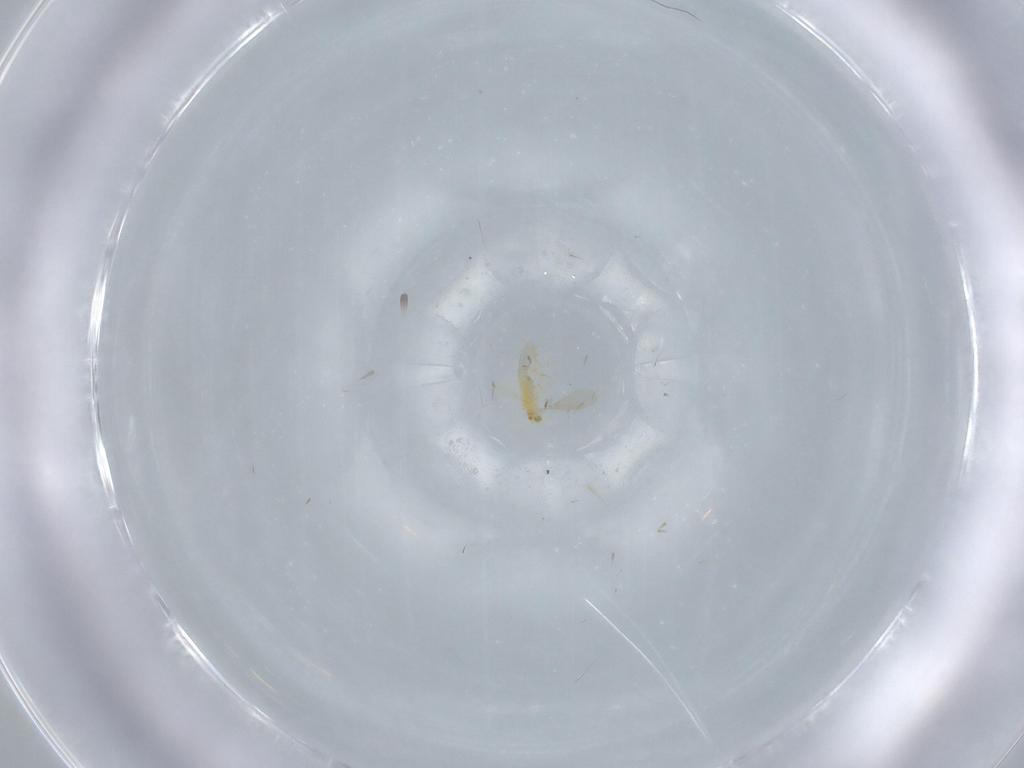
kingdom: Animalia
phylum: Arthropoda
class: Insecta
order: Hymenoptera
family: Aphelinidae
